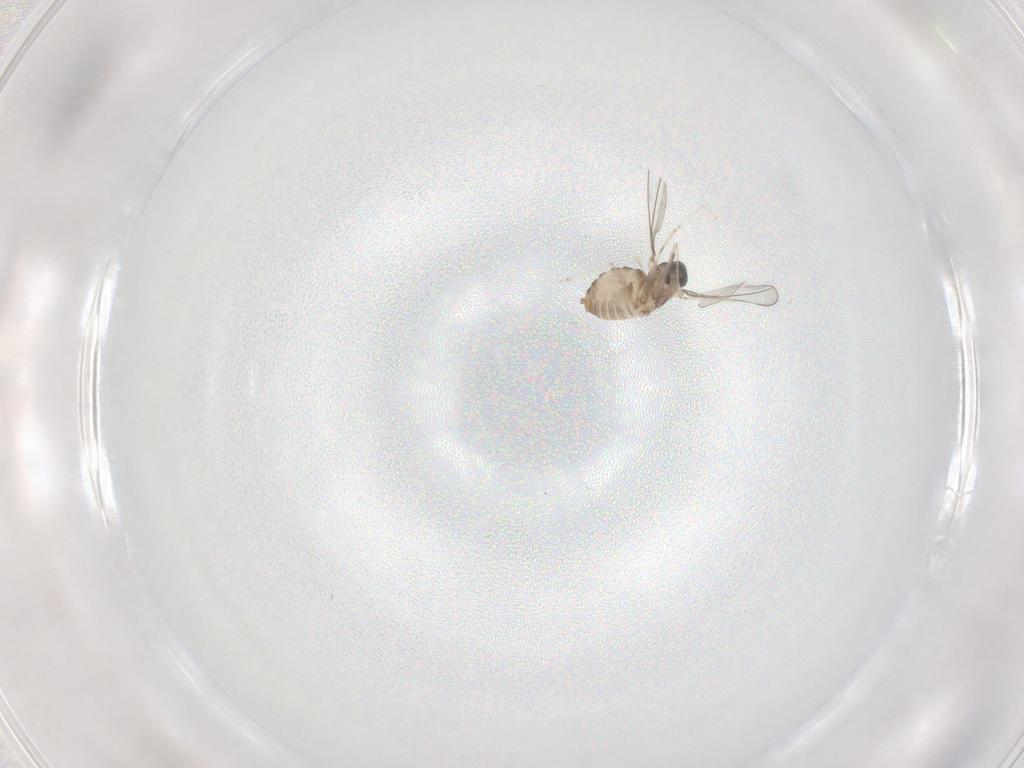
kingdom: Animalia
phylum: Arthropoda
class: Insecta
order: Diptera
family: Cecidomyiidae
